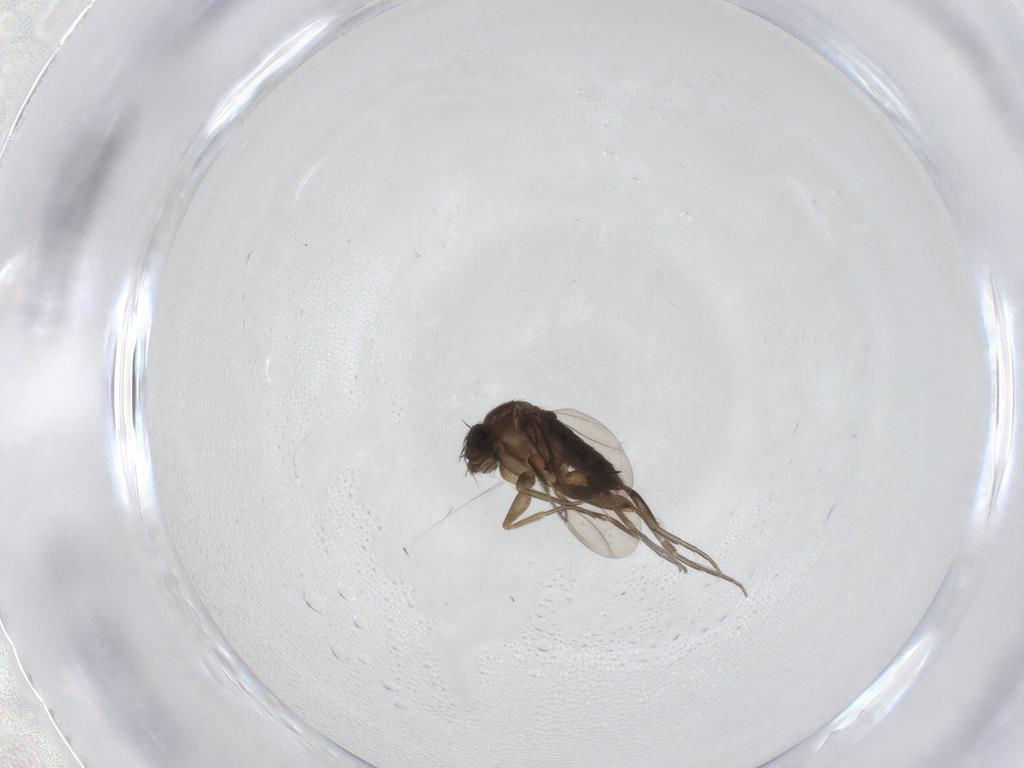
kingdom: Animalia
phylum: Arthropoda
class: Insecta
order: Diptera
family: Phoridae
